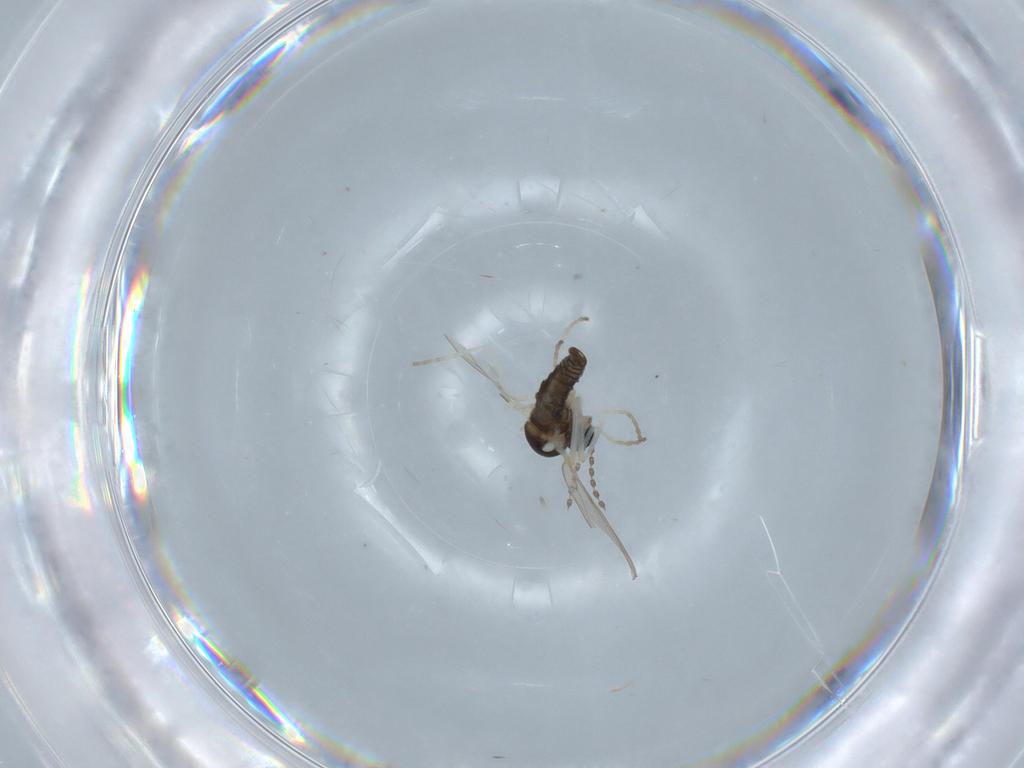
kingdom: Animalia
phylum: Arthropoda
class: Insecta
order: Diptera
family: Cecidomyiidae
